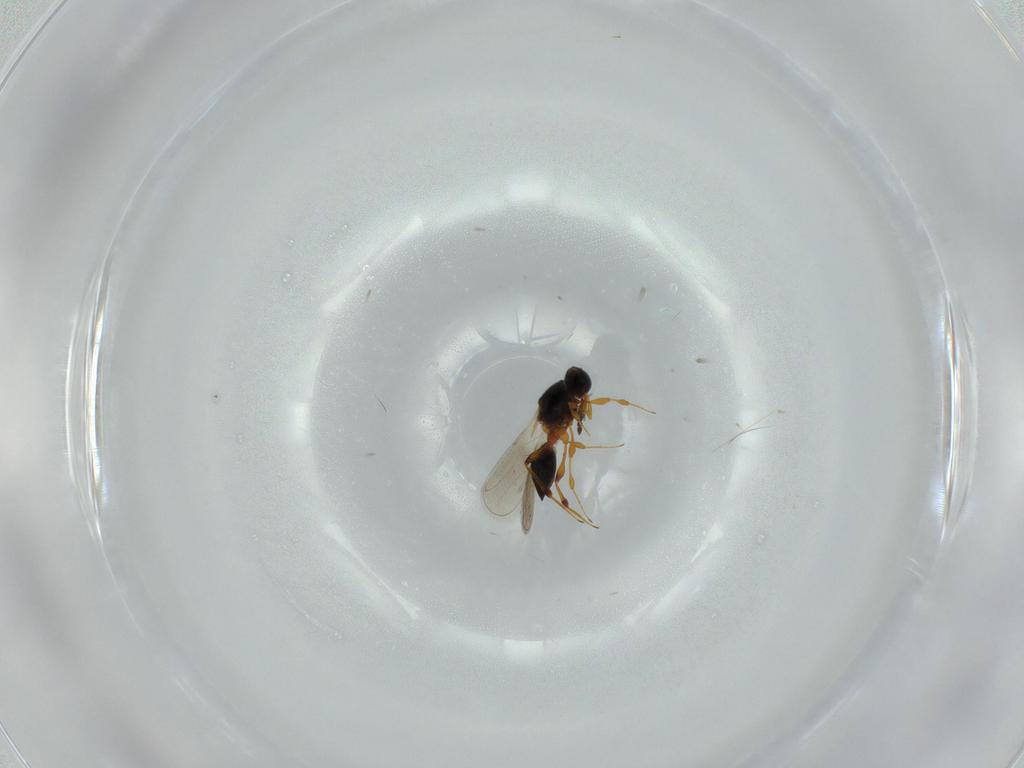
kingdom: Animalia
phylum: Arthropoda
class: Insecta
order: Hymenoptera
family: Platygastridae
